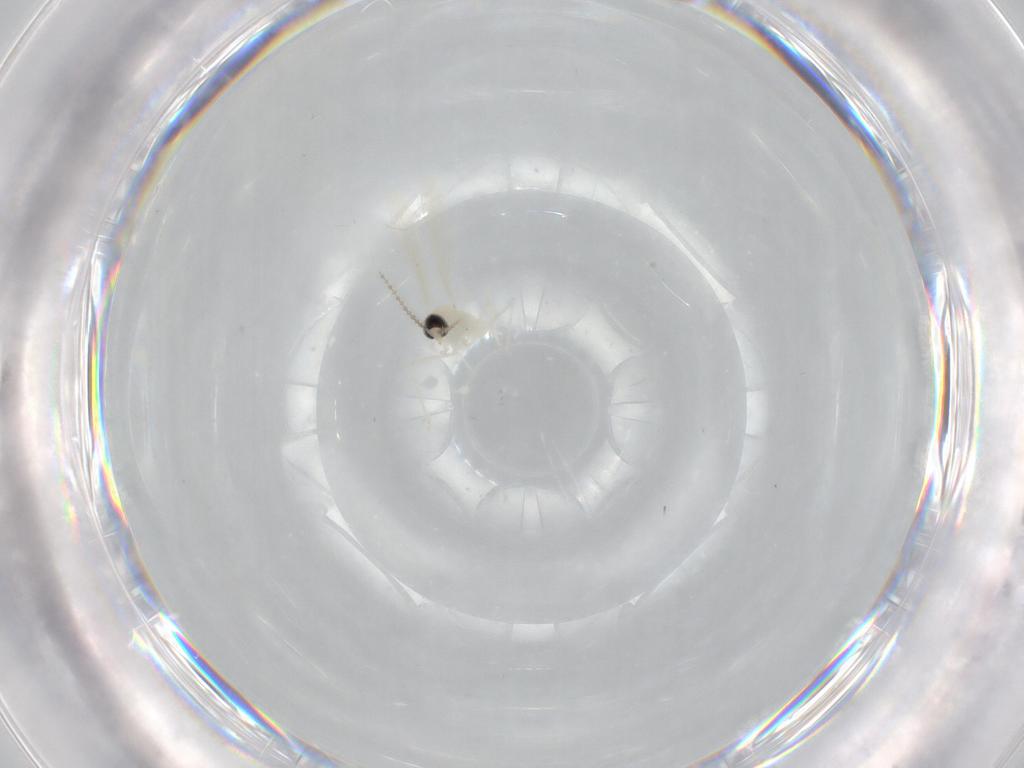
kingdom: Animalia
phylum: Arthropoda
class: Insecta
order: Diptera
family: Cecidomyiidae
